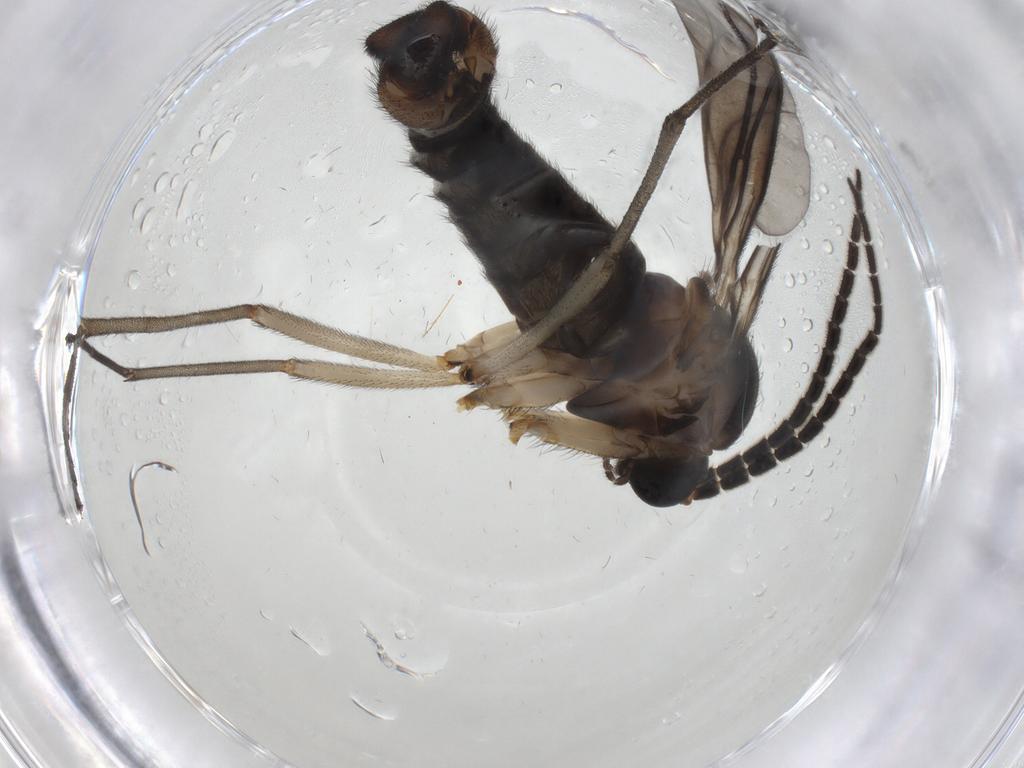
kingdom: Animalia
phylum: Arthropoda
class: Insecta
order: Diptera
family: Sciaridae
